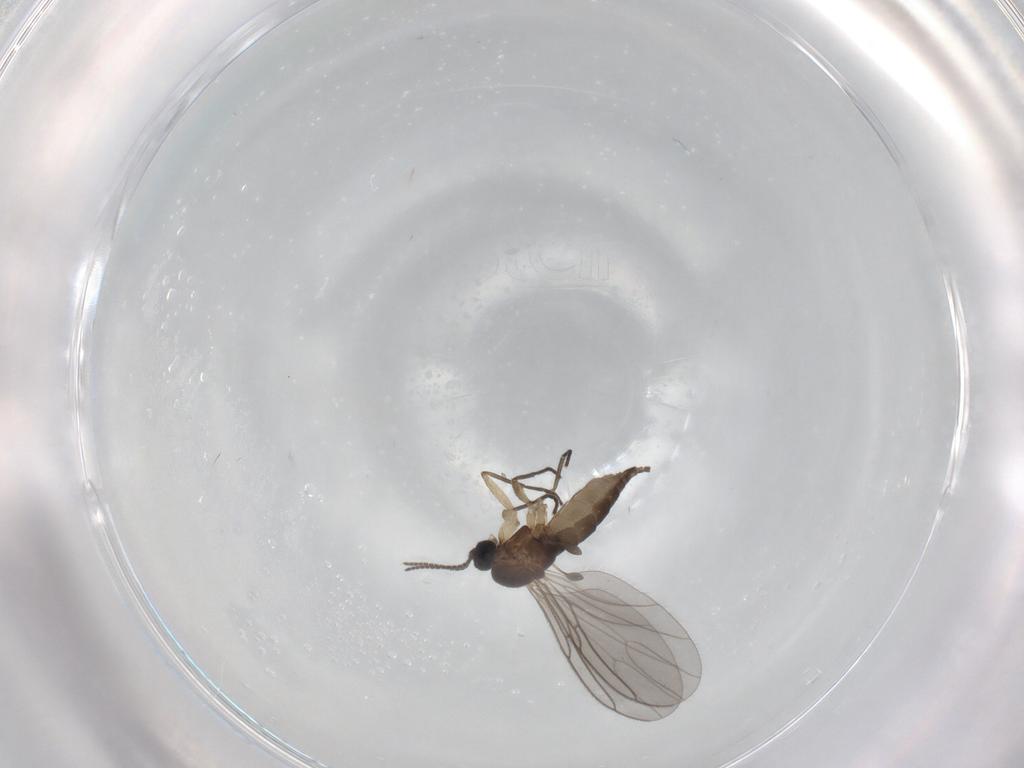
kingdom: Animalia
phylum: Arthropoda
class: Insecta
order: Diptera
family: Sciaridae
